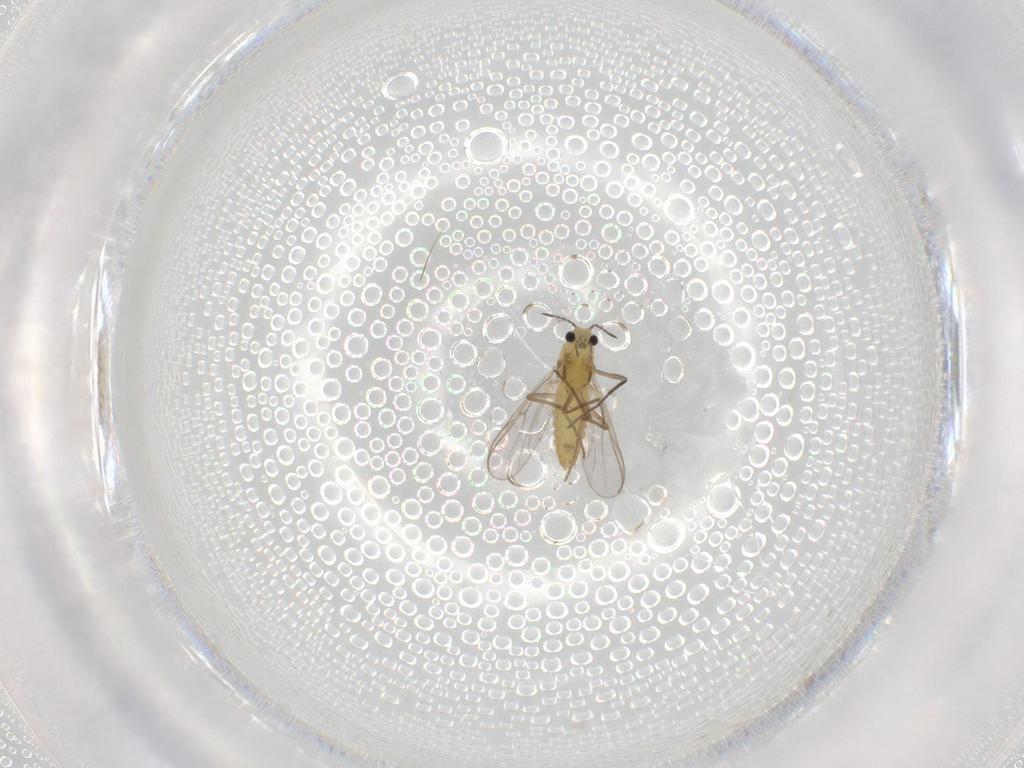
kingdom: Animalia
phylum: Arthropoda
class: Insecta
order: Diptera
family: Chironomidae
